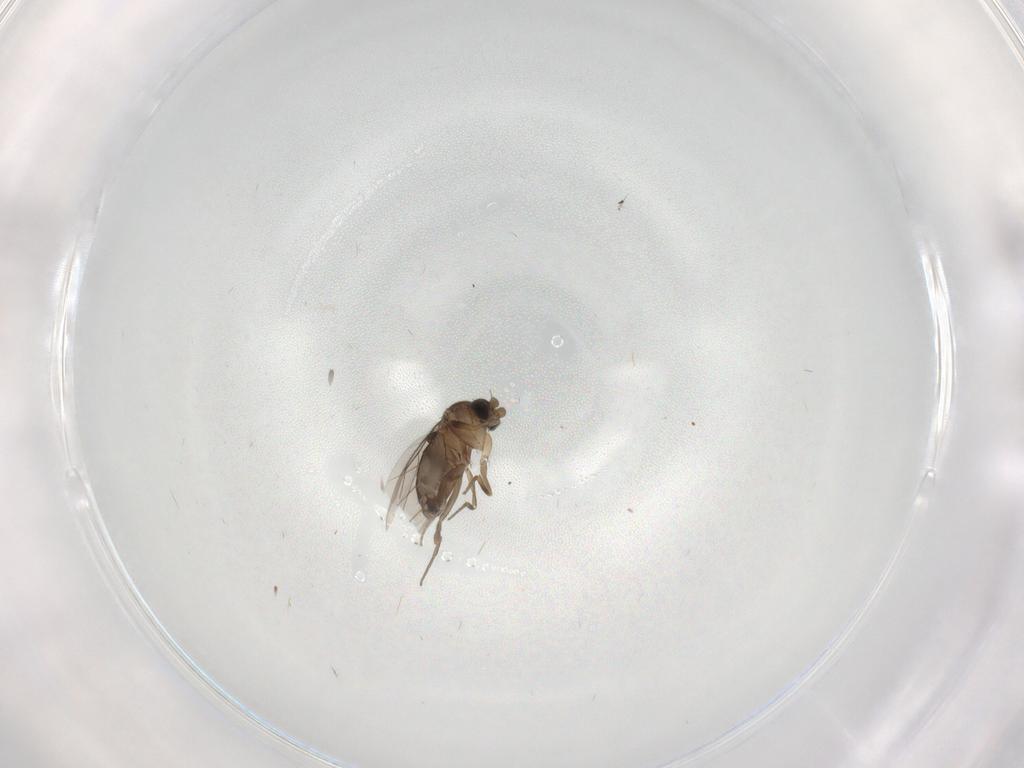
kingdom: Animalia
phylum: Arthropoda
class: Insecta
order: Diptera
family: Phoridae
